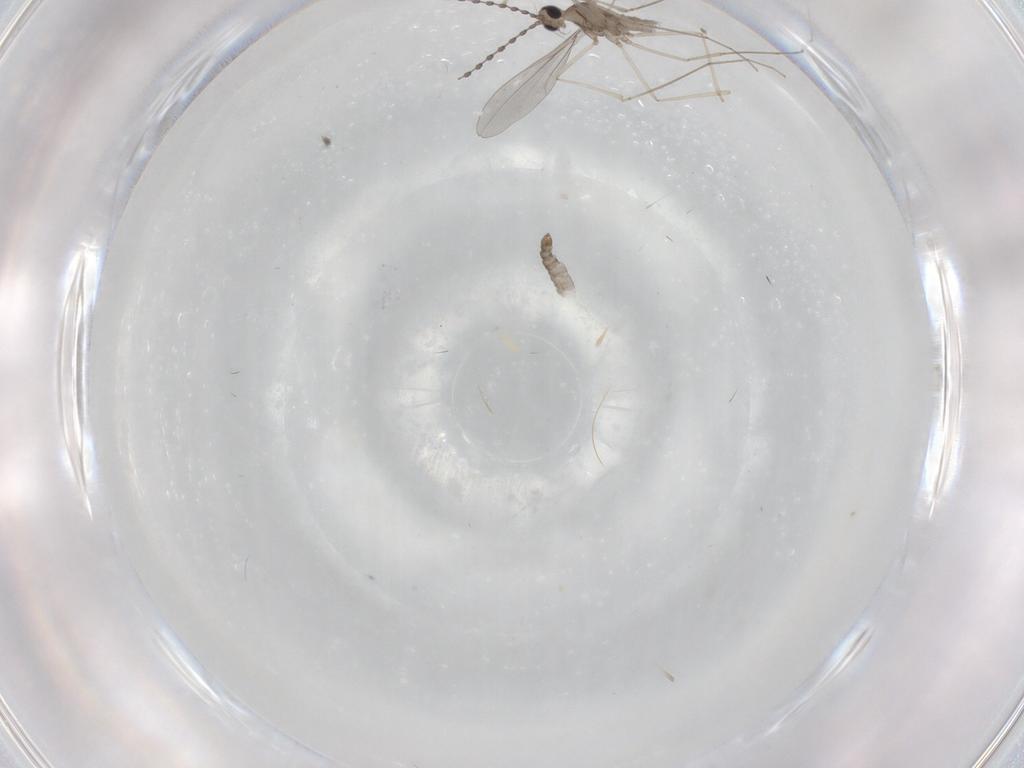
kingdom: Animalia
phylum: Arthropoda
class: Insecta
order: Diptera
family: Cecidomyiidae
